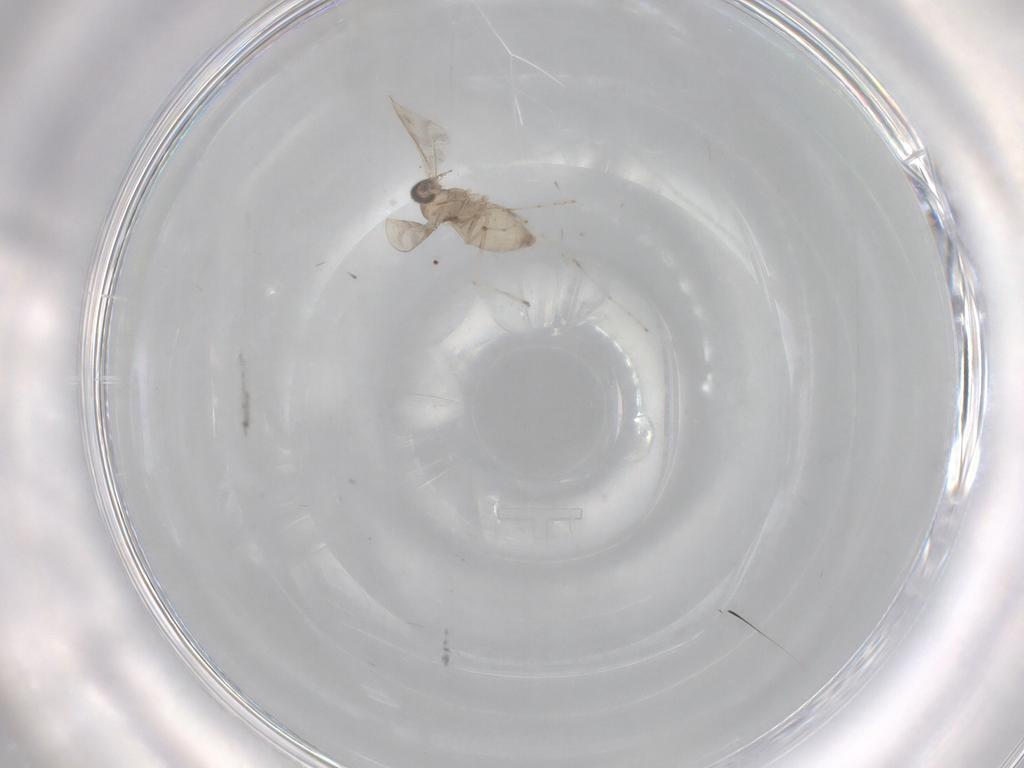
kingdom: Animalia
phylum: Arthropoda
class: Insecta
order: Diptera
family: Cecidomyiidae
